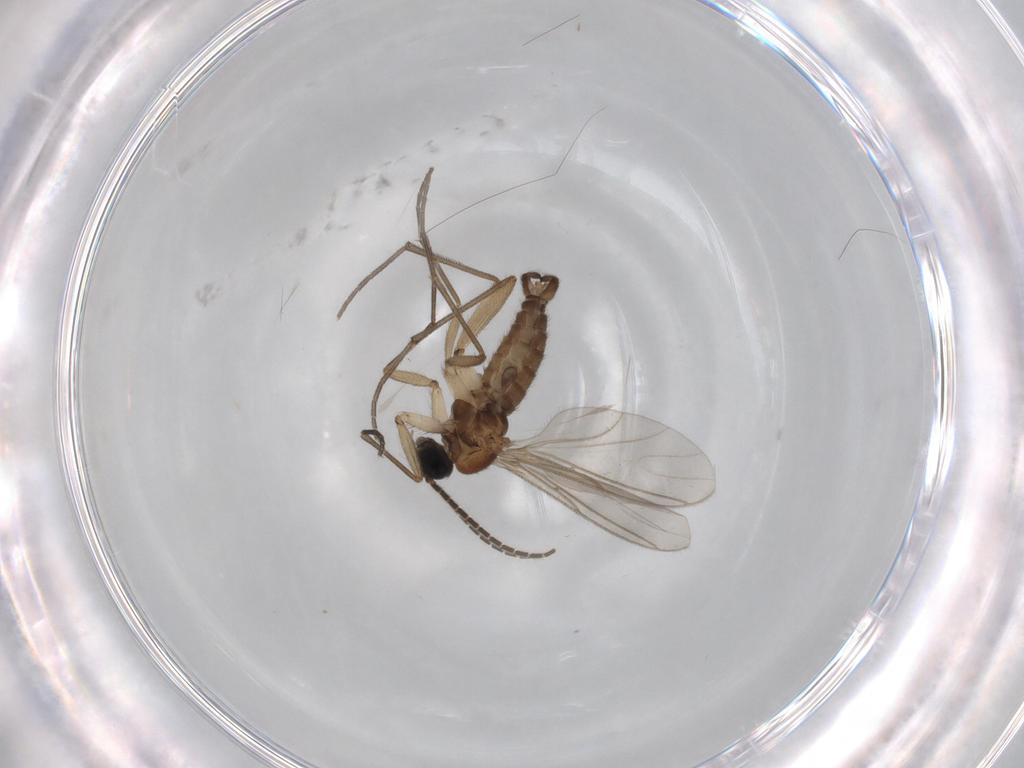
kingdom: Animalia
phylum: Arthropoda
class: Insecta
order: Diptera
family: Sciaridae
